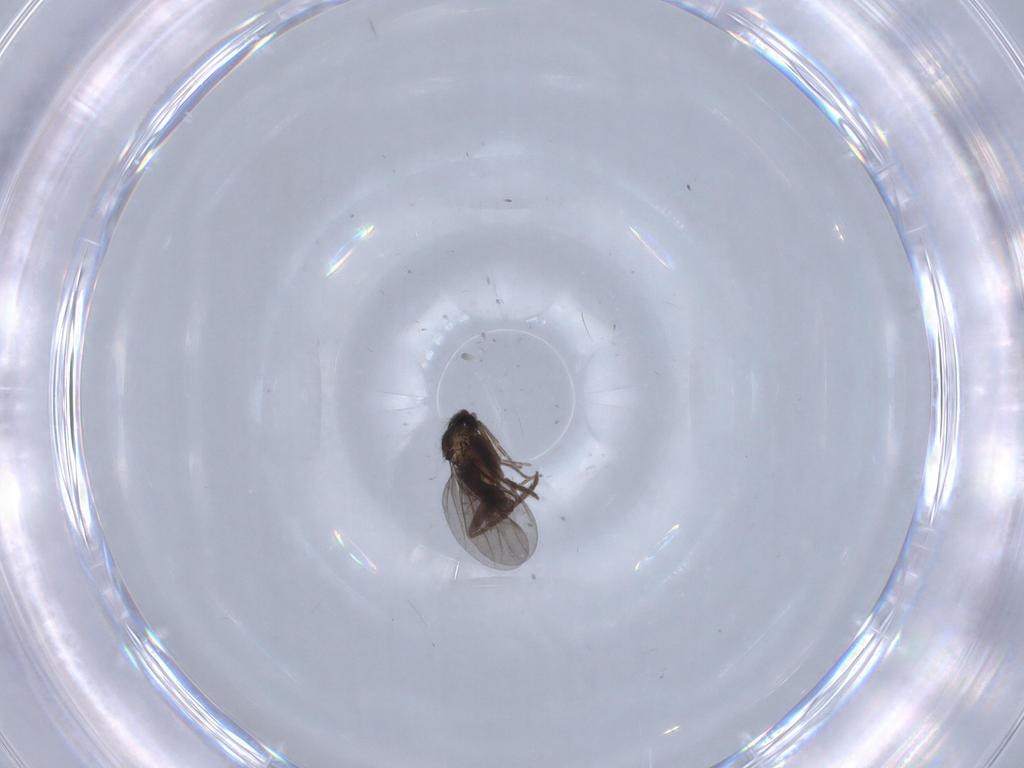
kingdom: Animalia
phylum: Arthropoda
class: Insecta
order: Diptera
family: Phoridae
